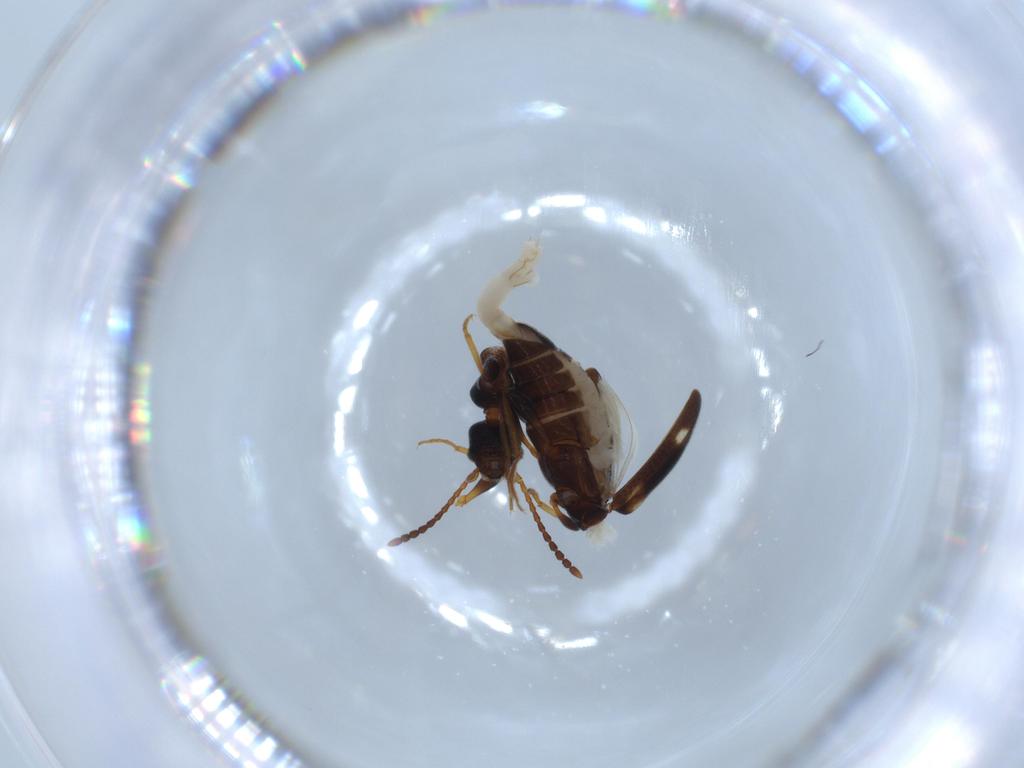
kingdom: Animalia
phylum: Arthropoda
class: Insecta
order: Coleoptera
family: Anthicidae
